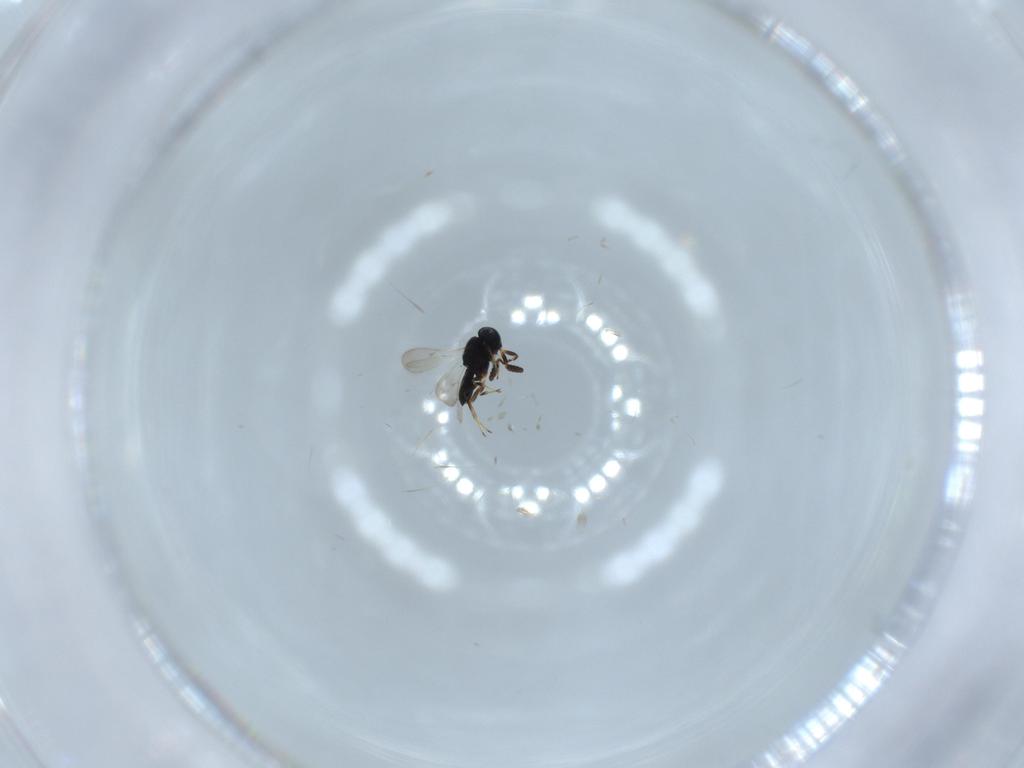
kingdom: Animalia
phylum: Arthropoda
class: Insecta
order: Hymenoptera
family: Scelionidae
